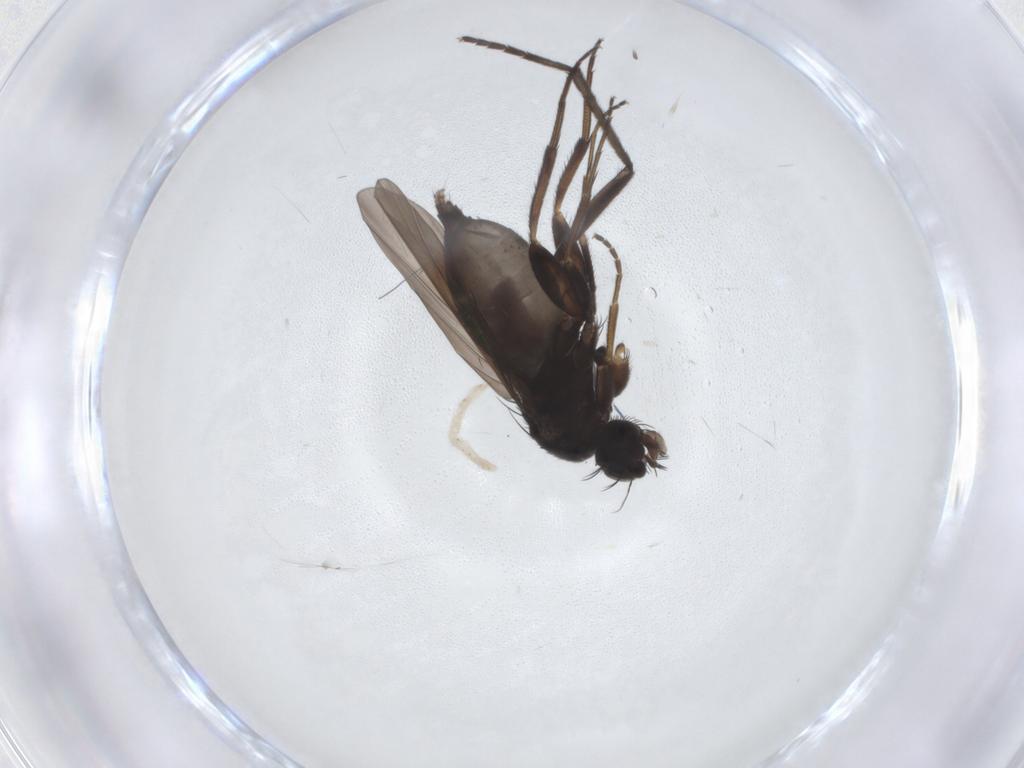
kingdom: Animalia
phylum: Arthropoda
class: Insecta
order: Diptera
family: Phoridae
